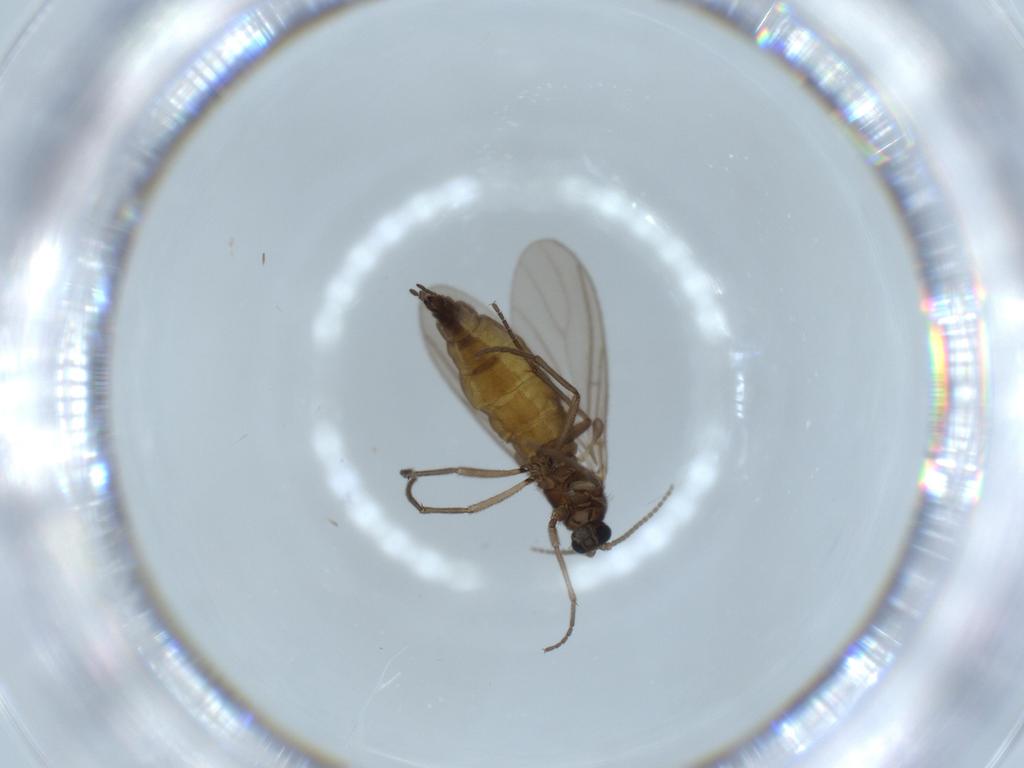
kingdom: Animalia
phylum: Arthropoda
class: Insecta
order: Diptera
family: Sciaridae
